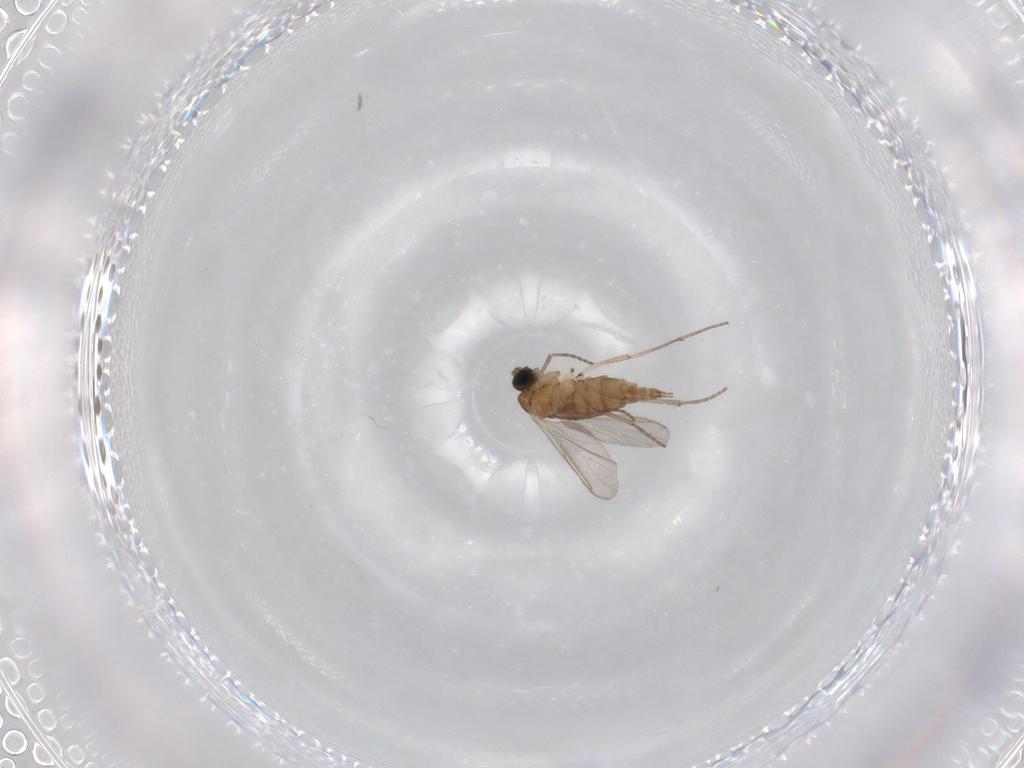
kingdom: Animalia
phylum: Arthropoda
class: Insecta
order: Diptera
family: Sciaridae
